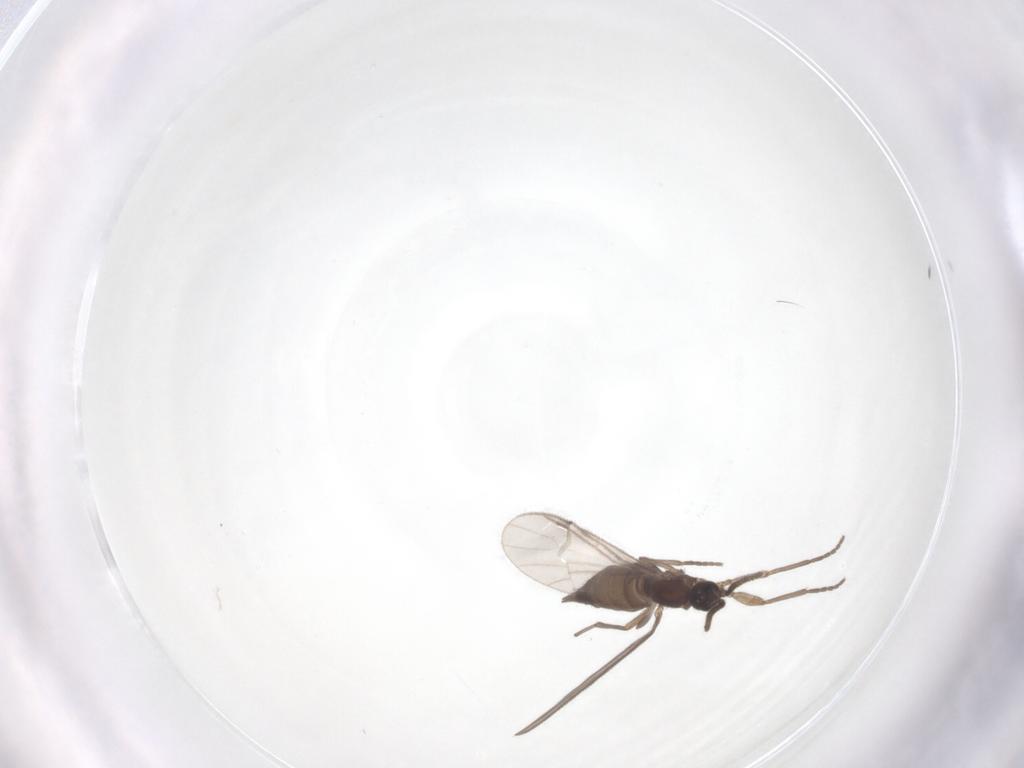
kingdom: Animalia
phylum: Arthropoda
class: Insecta
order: Diptera
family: Sciaridae
